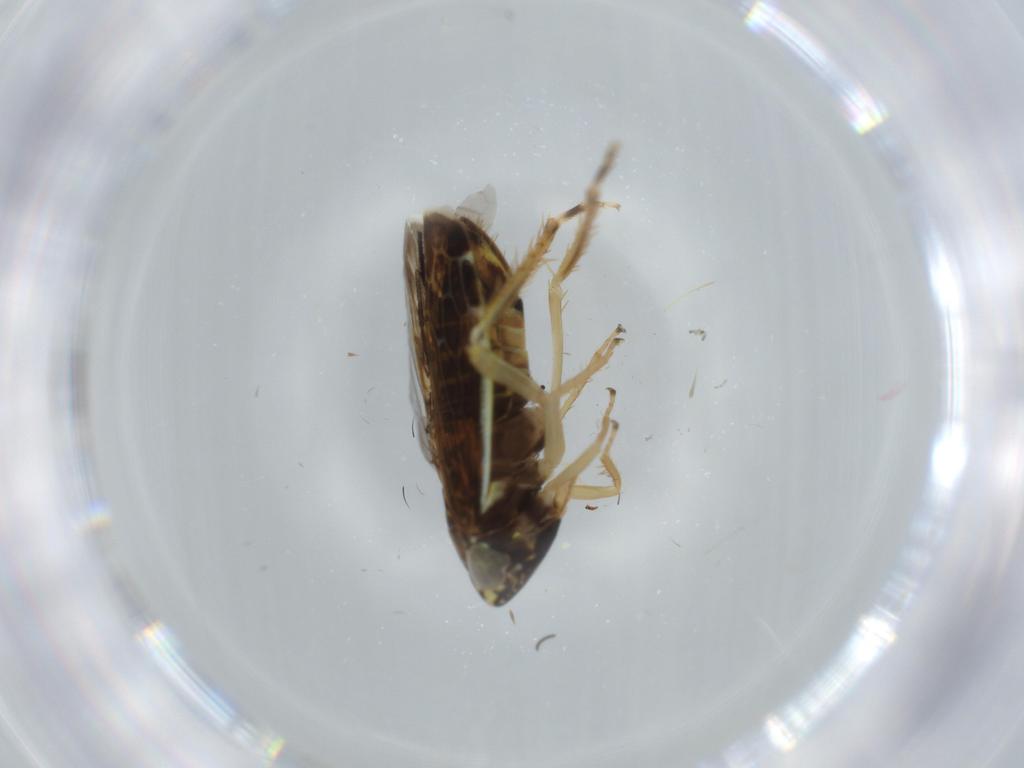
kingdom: Animalia
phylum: Arthropoda
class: Insecta
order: Hemiptera
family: Cicadellidae
